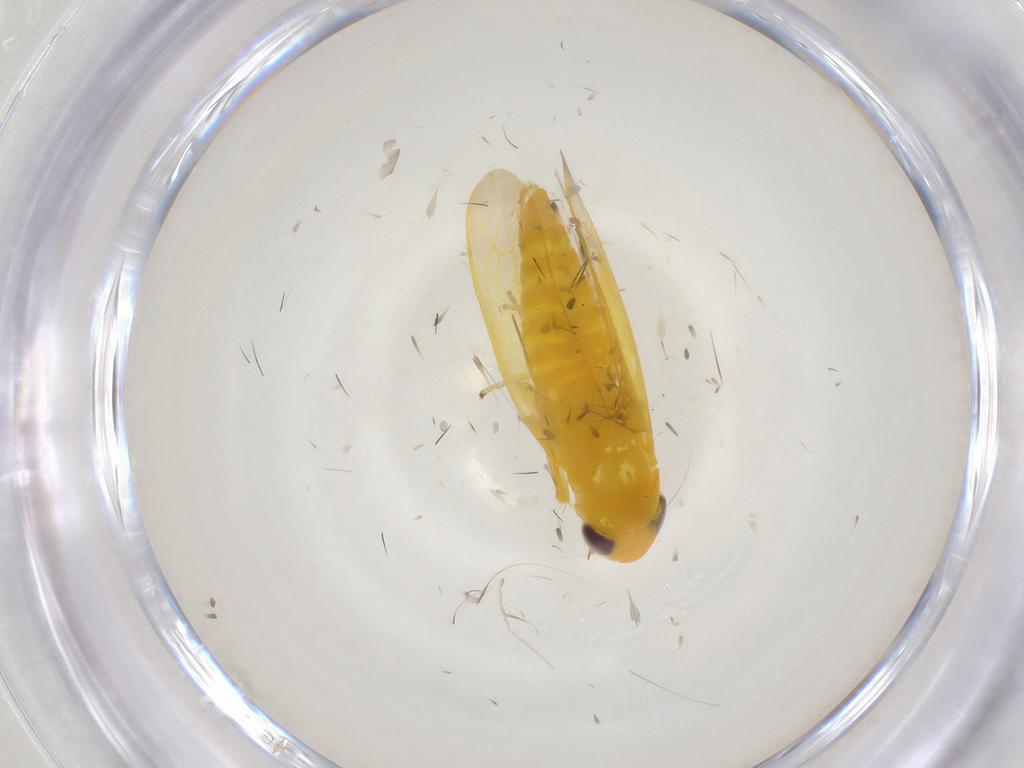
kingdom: Animalia
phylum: Arthropoda
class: Insecta
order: Hemiptera
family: Cicadellidae
